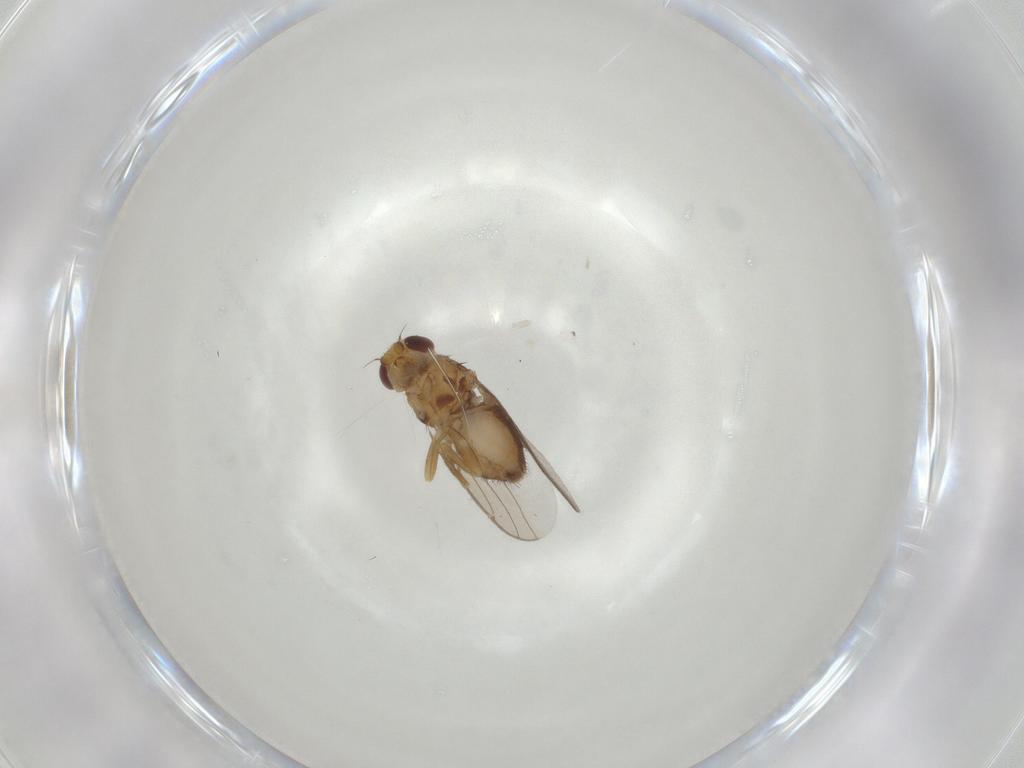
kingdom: Animalia
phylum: Arthropoda
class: Insecta
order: Diptera
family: Chloropidae
